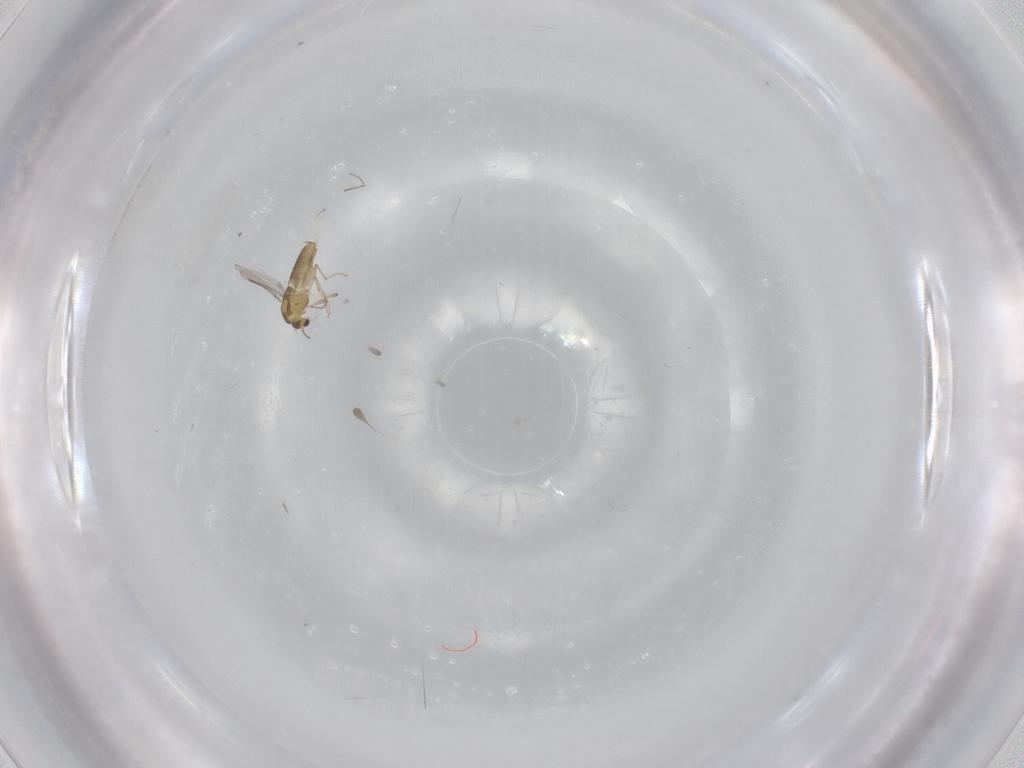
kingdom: Animalia
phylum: Arthropoda
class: Insecta
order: Diptera
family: Chironomidae
